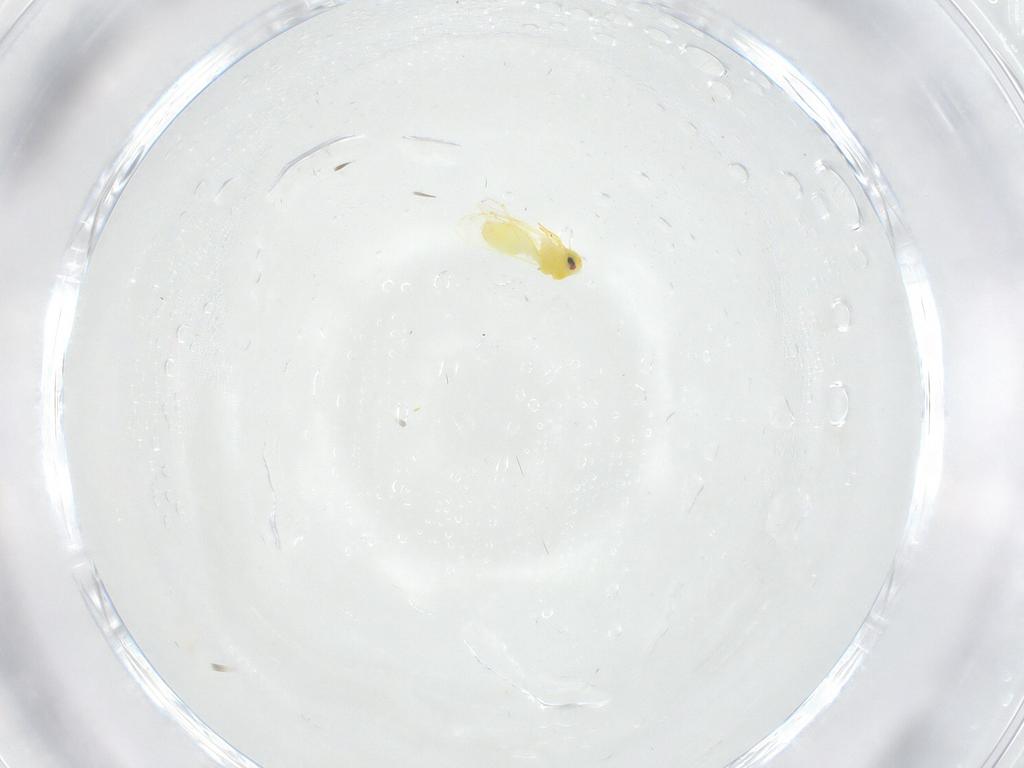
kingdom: Animalia
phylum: Arthropoda
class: Insecta
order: Hemiptera
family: Aleyrodidae
